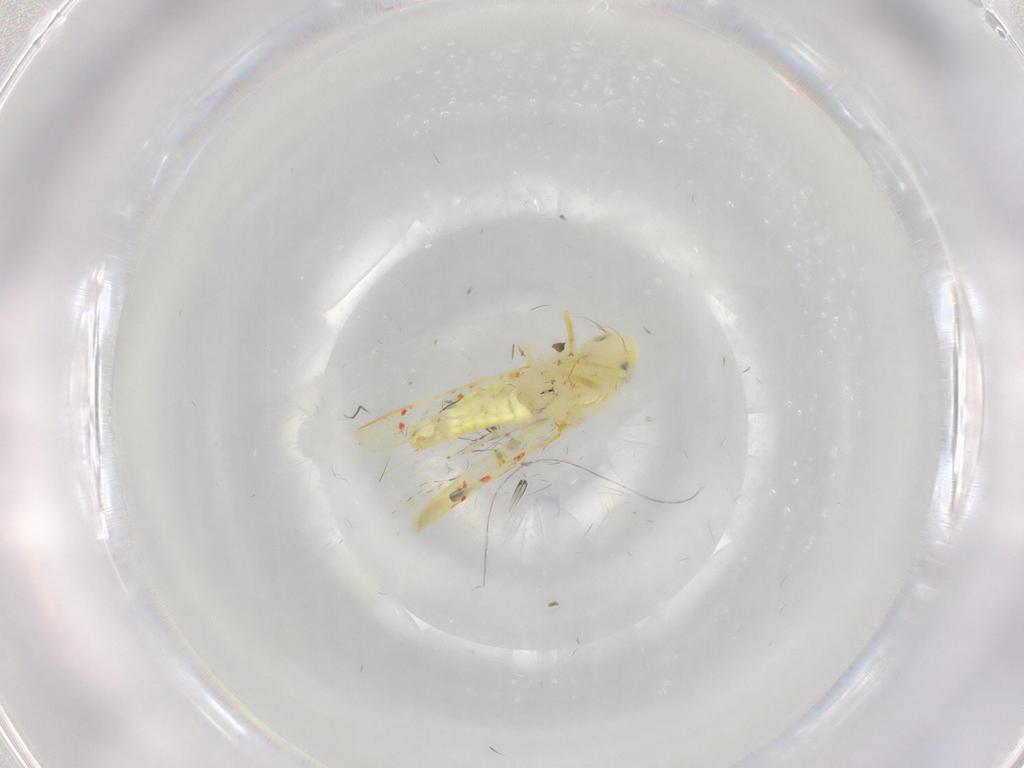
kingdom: Animalia
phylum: Arthropoda
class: Insecta
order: Hemiptera
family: Cicadellidae
